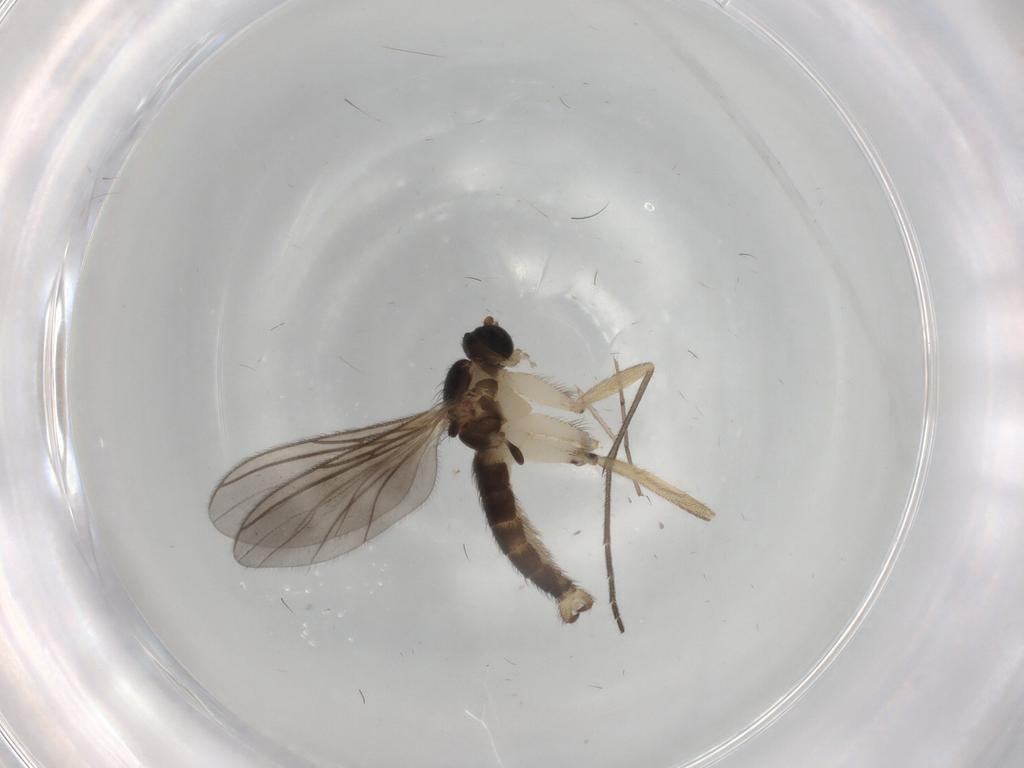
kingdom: Animalia
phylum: Arthropoda
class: Insecta
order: Diptera
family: Sciaridae
